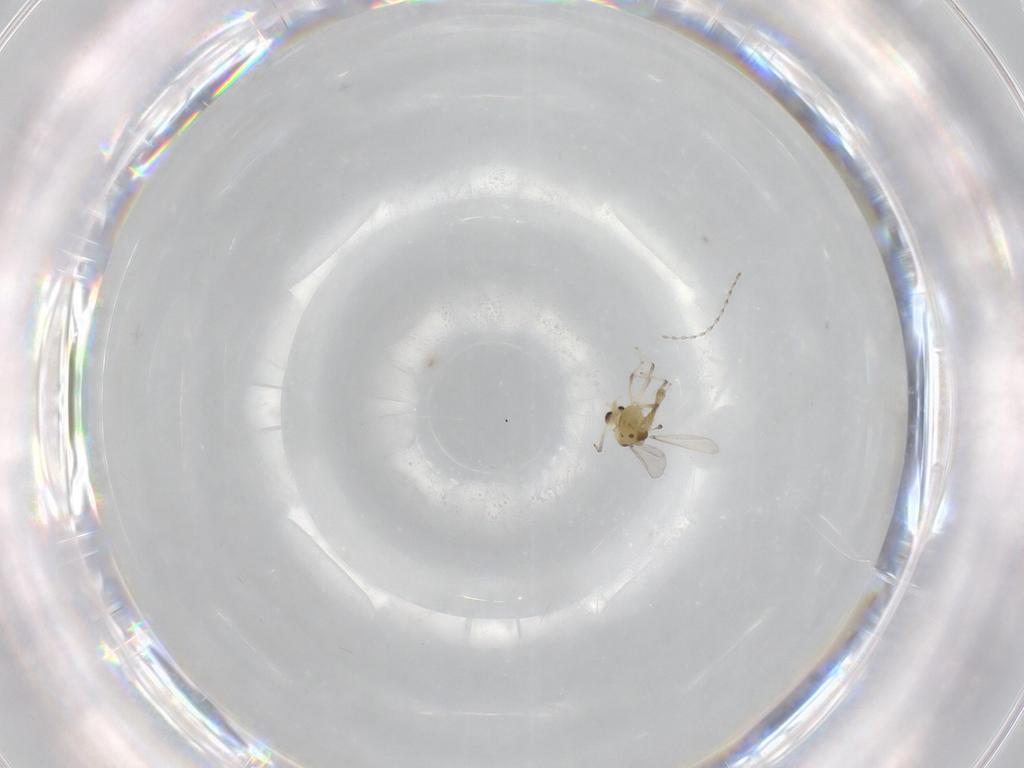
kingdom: Animalia
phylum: Arthropoda
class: Insecta
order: Diptera
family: Chironomidae
